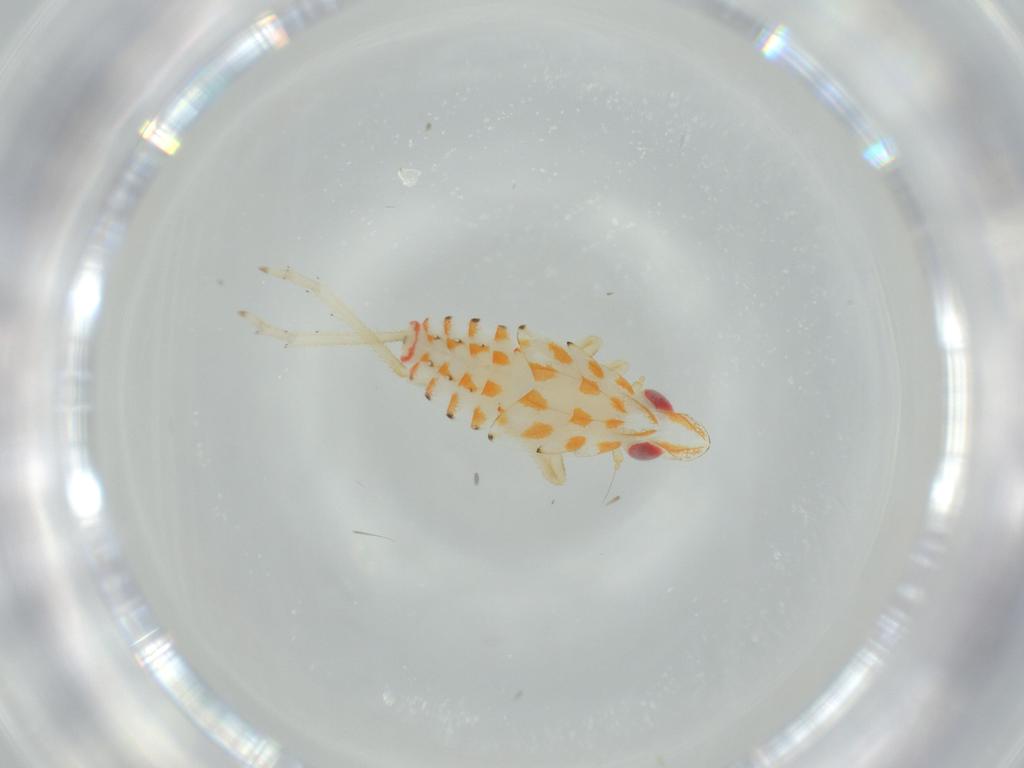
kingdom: Animalia
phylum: Arthropoda
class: Insecta
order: Hemiptera
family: Tropiduchidae
